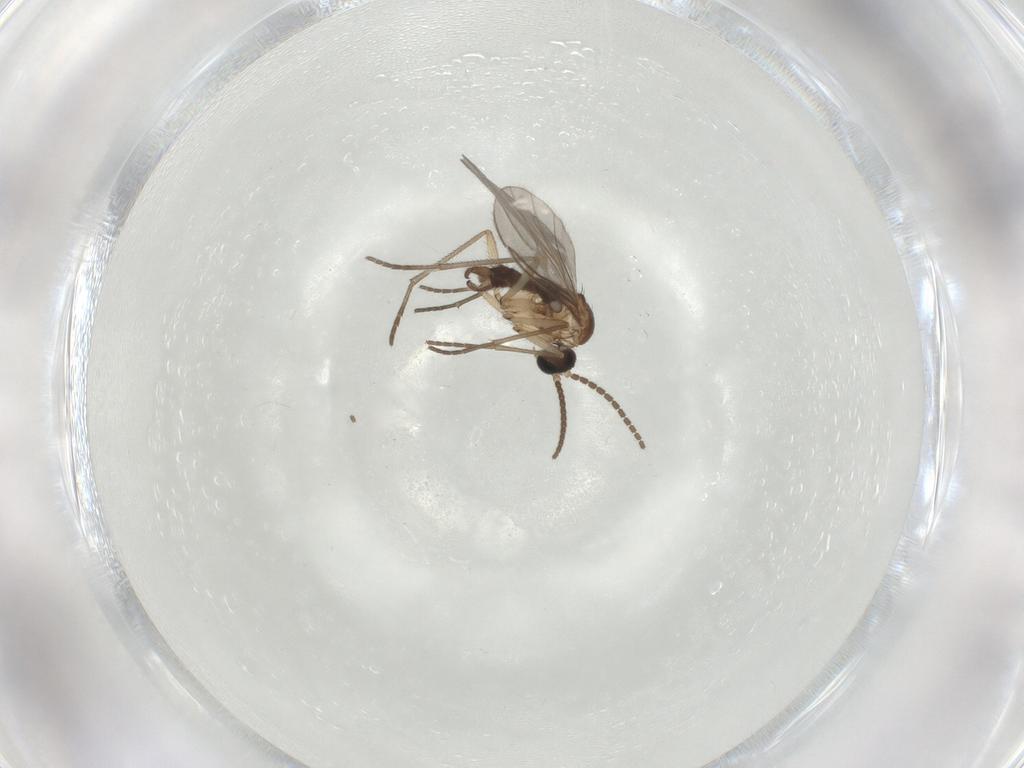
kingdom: Animalia
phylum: Arthropoda
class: Insecta
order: Diptera
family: Sciaridae
